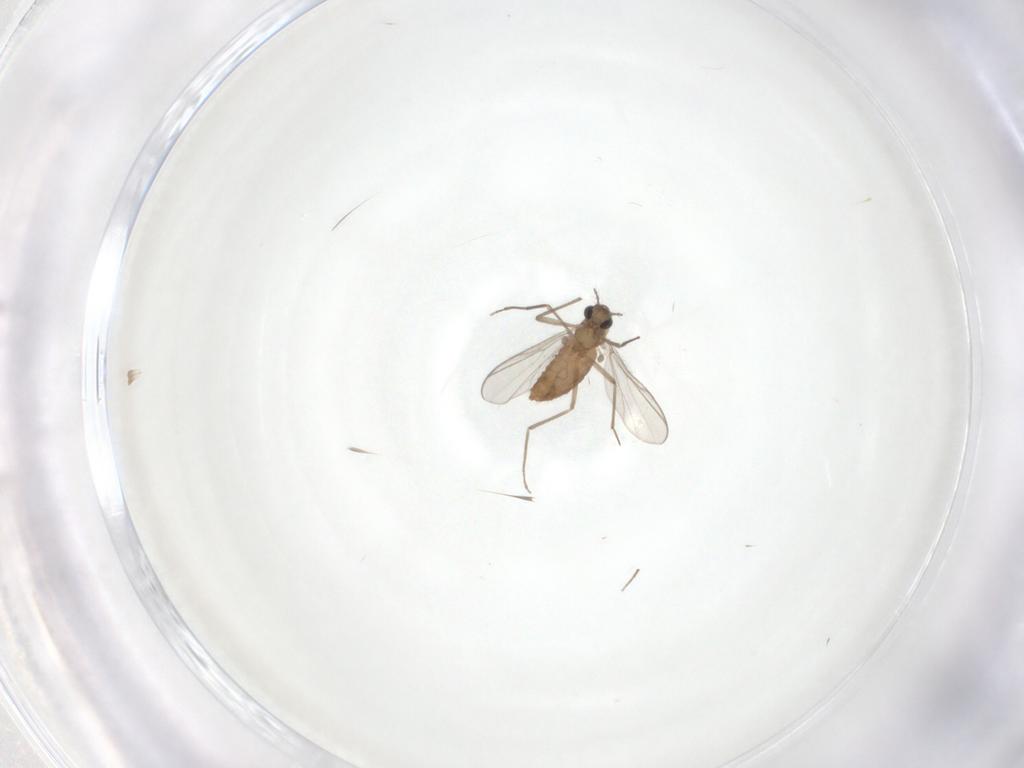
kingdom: Animalia
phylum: Arthropoda
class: Insecta
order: Diptera
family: Chironomidae
